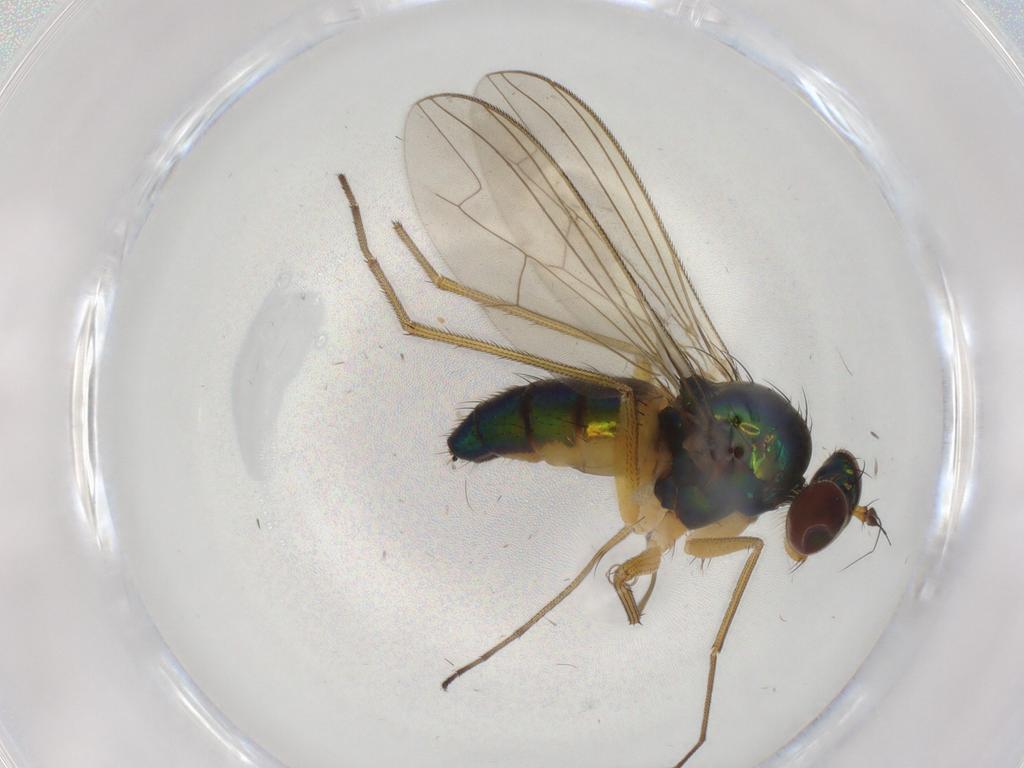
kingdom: Animalia
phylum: Arthropoda
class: Insecta
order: Diptera
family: Dolichopodidae
